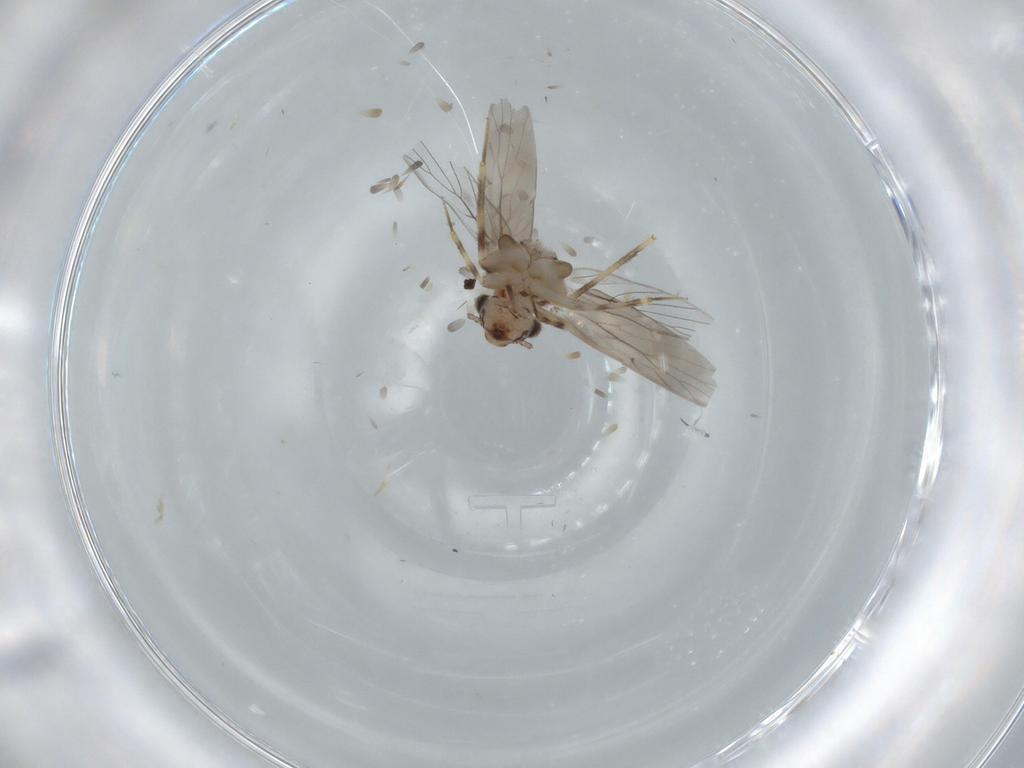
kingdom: Animalia
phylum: Arthropoda
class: Insecta
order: Psocodea
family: Lepidopsocidae
